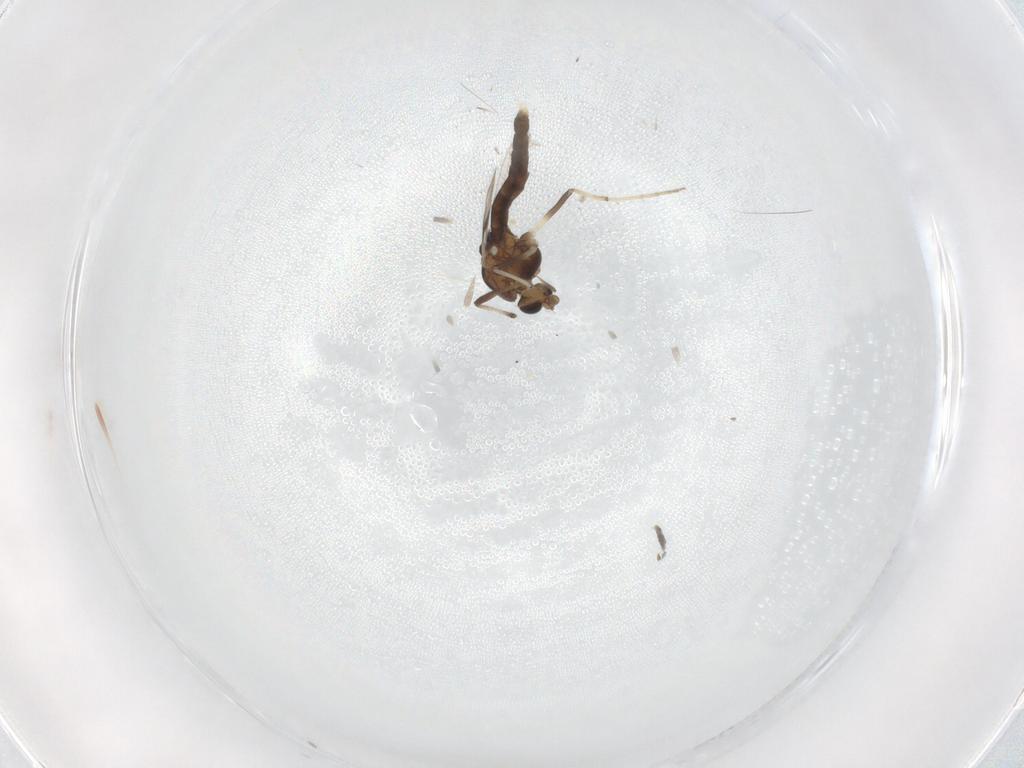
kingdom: Animalia
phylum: Arthropoda
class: Insecta
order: Diptera
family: Chironomidae
